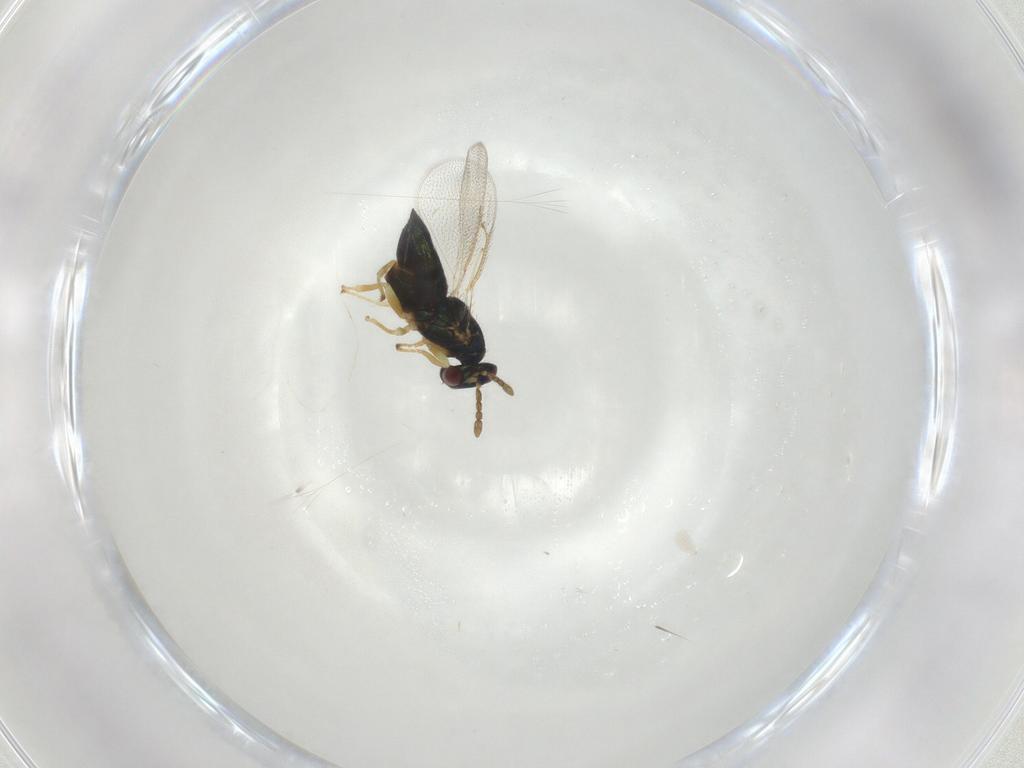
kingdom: Animalia
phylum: Arthropoda
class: Insecta
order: Hymenoptera
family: Eulophidae
